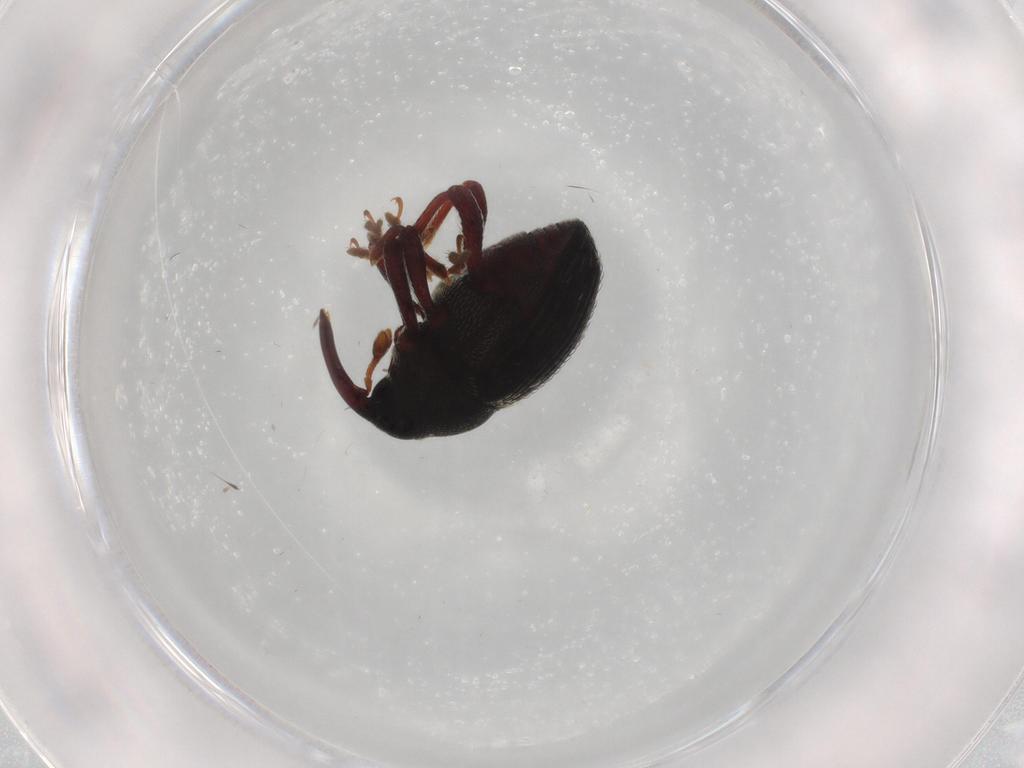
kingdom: Animalia
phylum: Arthropoda
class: Insecta
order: Coleoptera
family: Curculionidae
